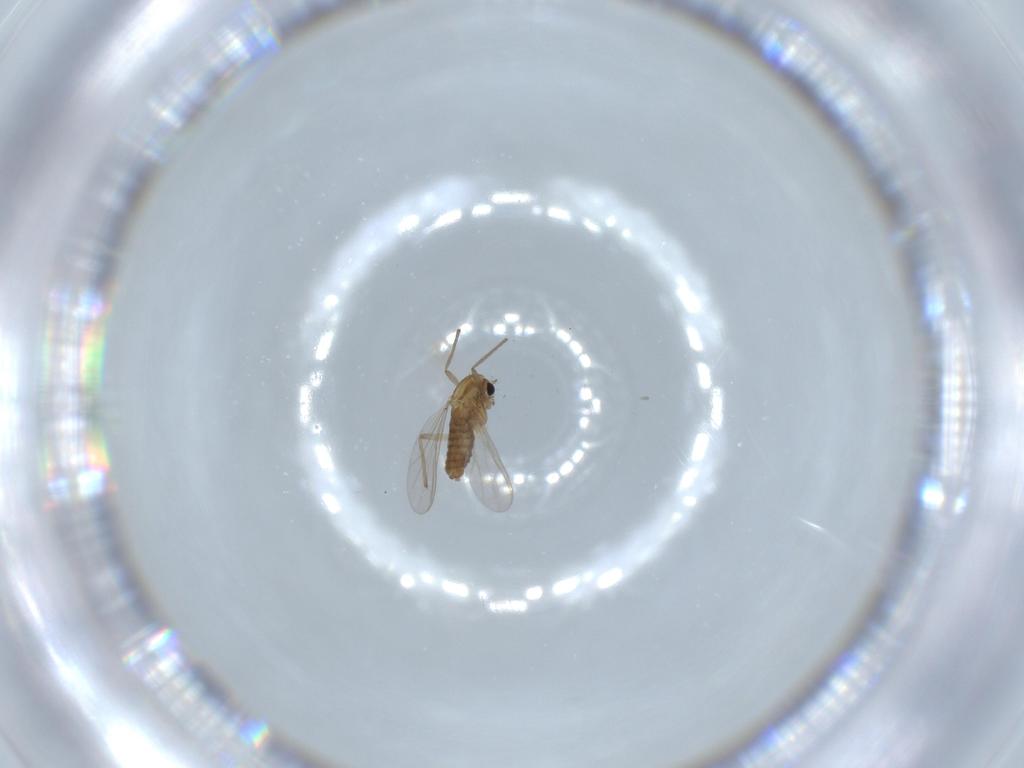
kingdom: Animalia
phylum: Arthropoda
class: Insecta
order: Diptera
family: Chironomidae
